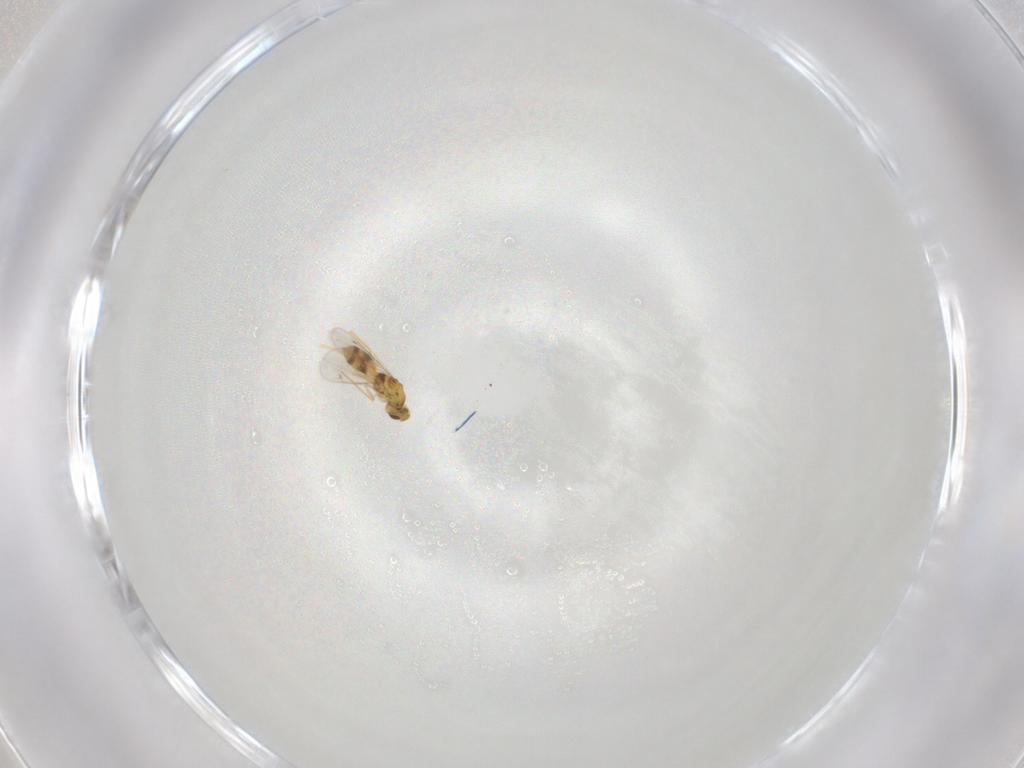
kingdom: Animalia
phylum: Arthropoda
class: Insecta
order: Hymenoptera
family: Eulophidae
